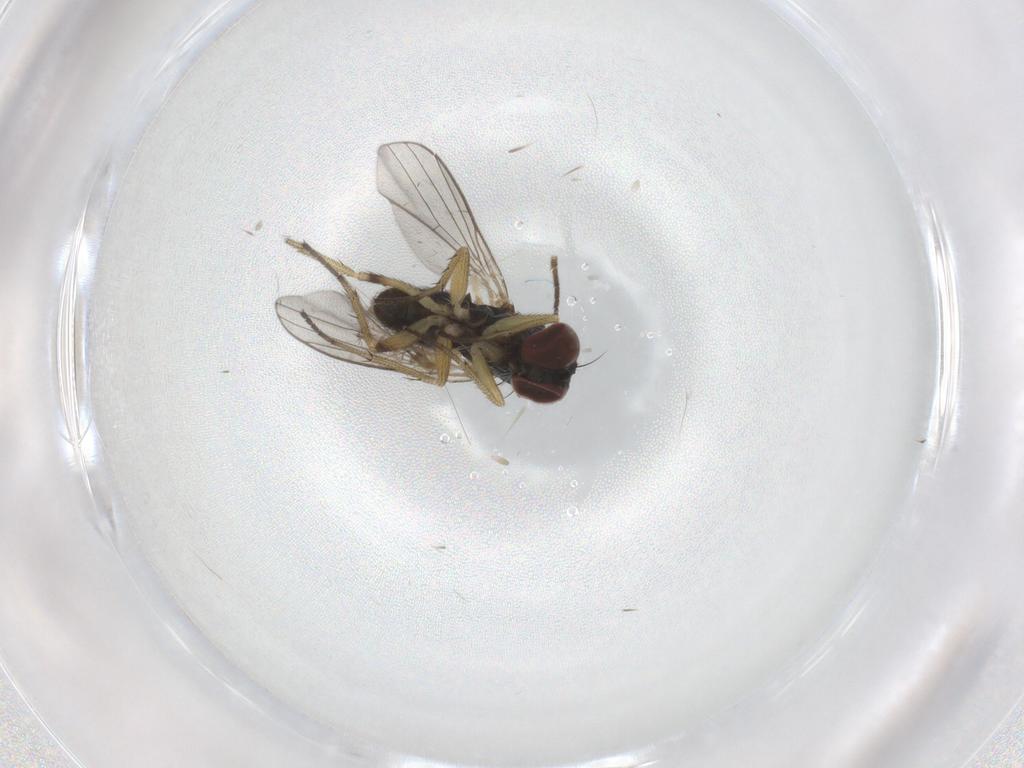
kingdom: Animalia
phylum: Arthropoda
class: Insecta
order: Diptera
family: Dolichopodidae
